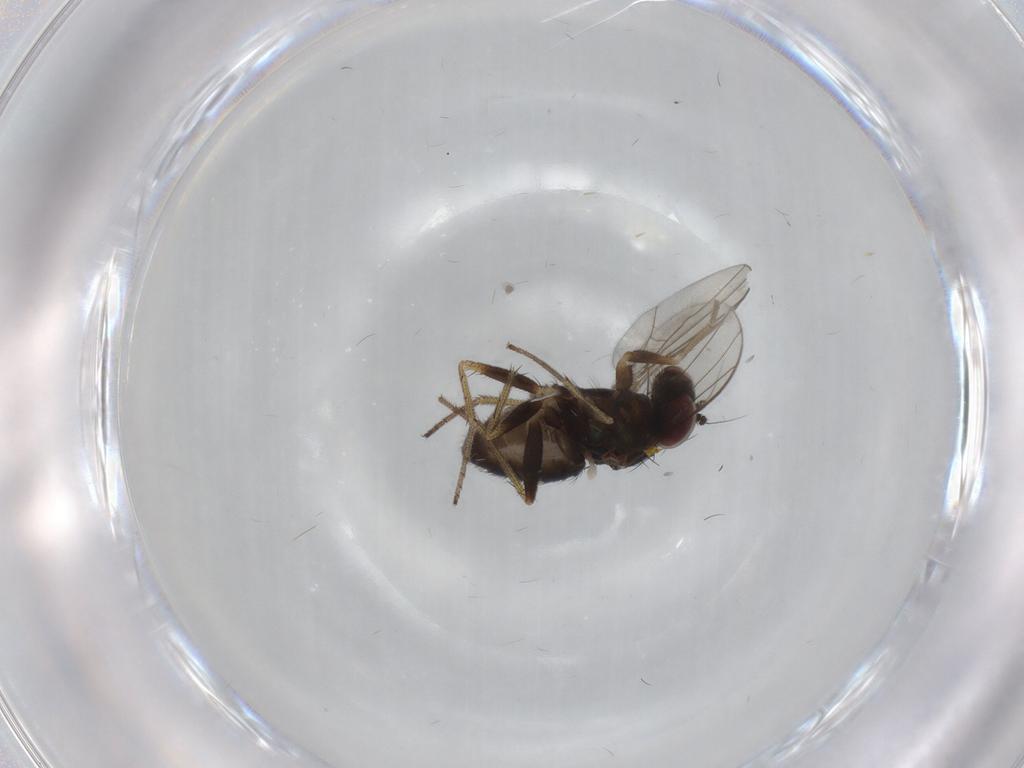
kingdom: Animalia
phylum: Arthropoda
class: Insecta
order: Diptera
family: Dolichopodidae
